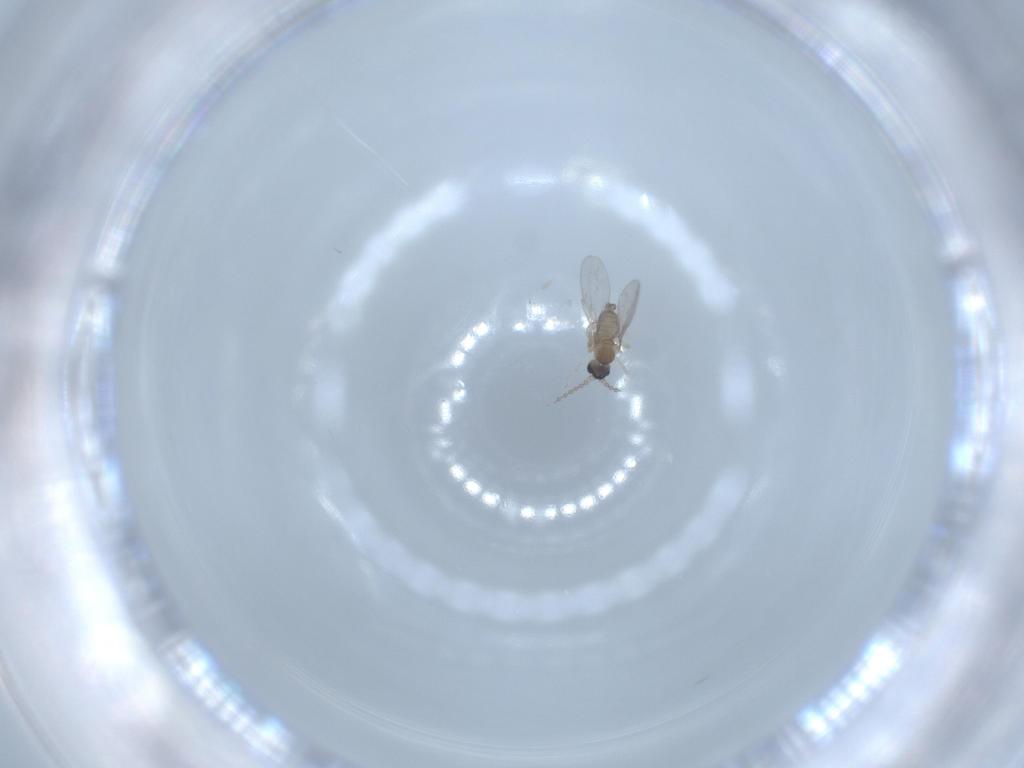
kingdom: Animalia
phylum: Arthropoda
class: Insecta
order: Diptera
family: Cecidomyiidae
